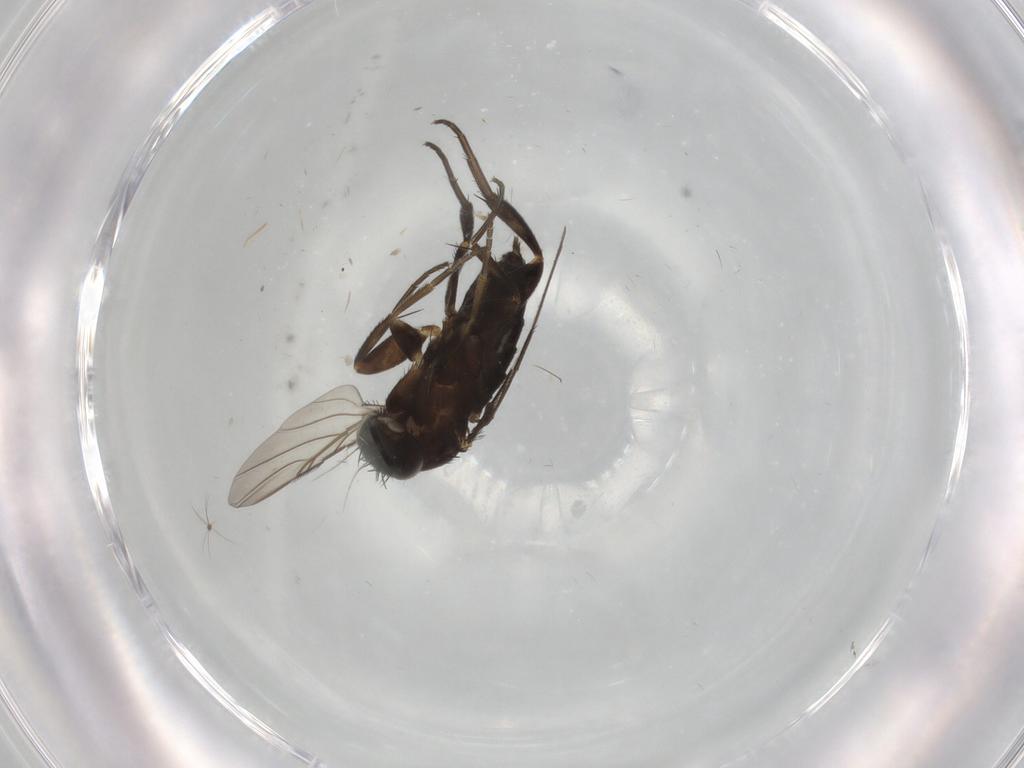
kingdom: Animalia
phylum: Arthropoda
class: Insecta
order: Diptera
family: Phoridae
